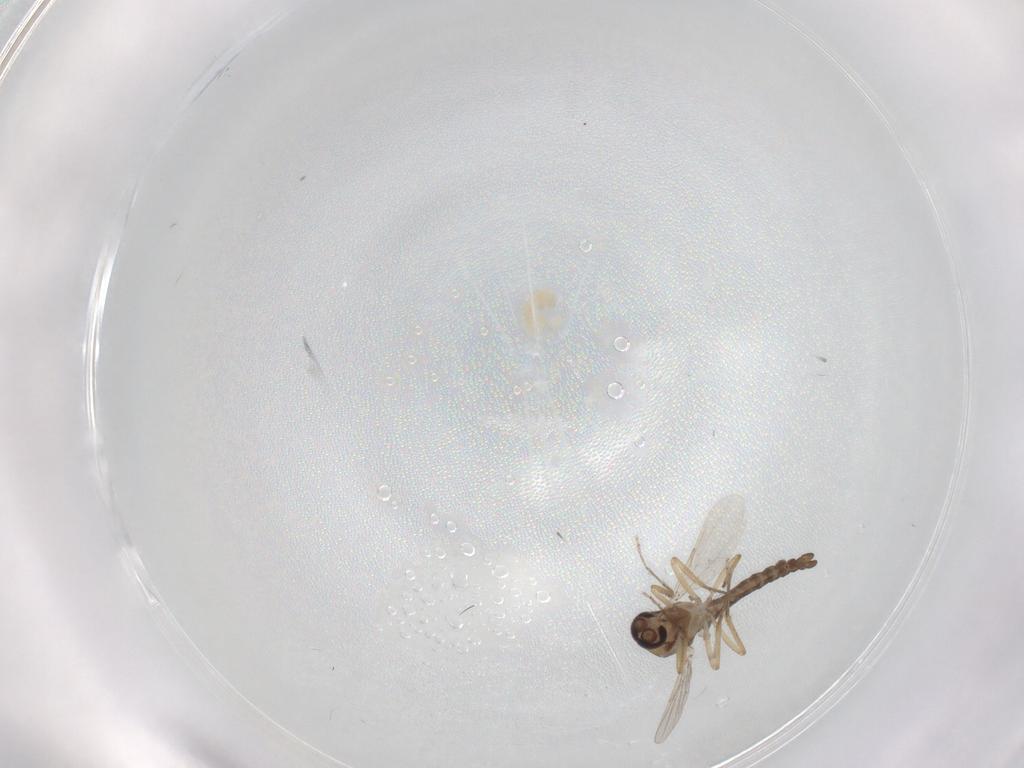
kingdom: Animalia
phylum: Arthropoda
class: Insecta
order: Diptera
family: Ceratopogonidae
